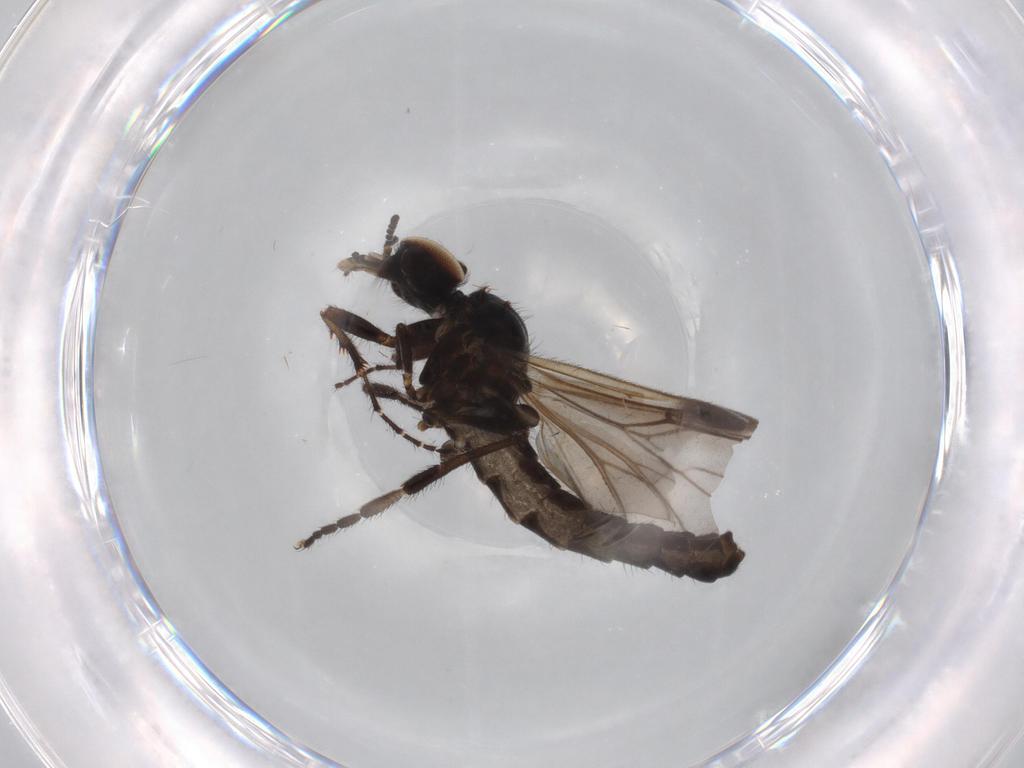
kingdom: Animalia
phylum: Arthropoda
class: Insecta
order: Diptera
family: Bibionidae
